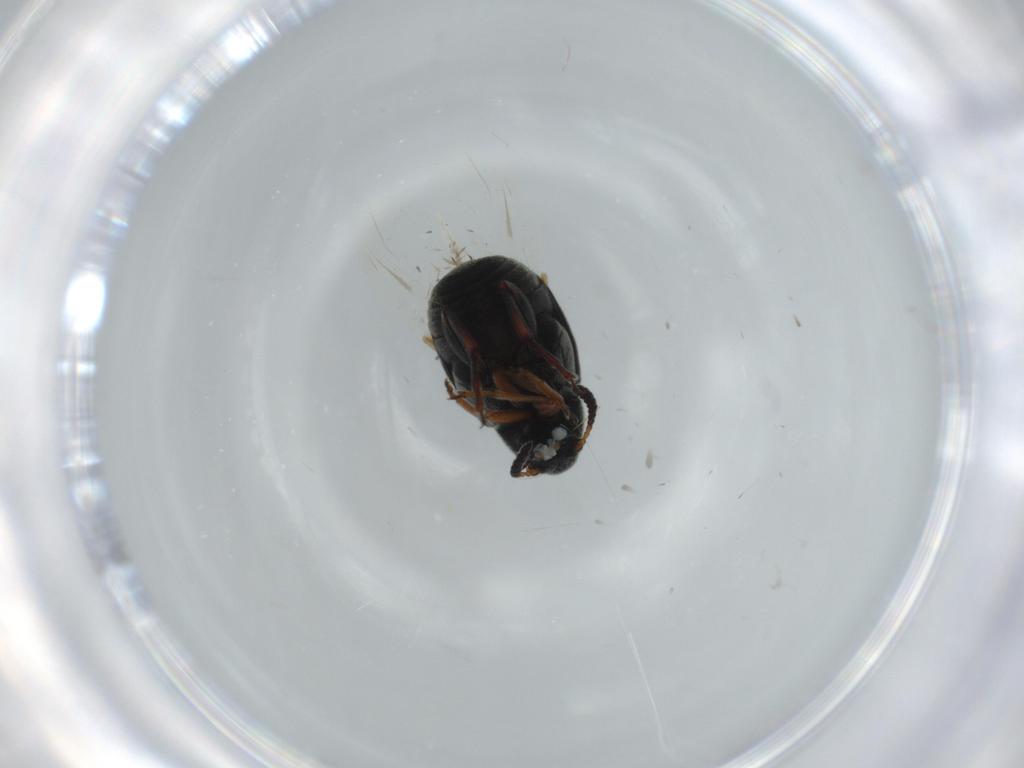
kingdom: Animalia
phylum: Arthropoda
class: Insecta
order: Coleoptera
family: Chrysomelidae
